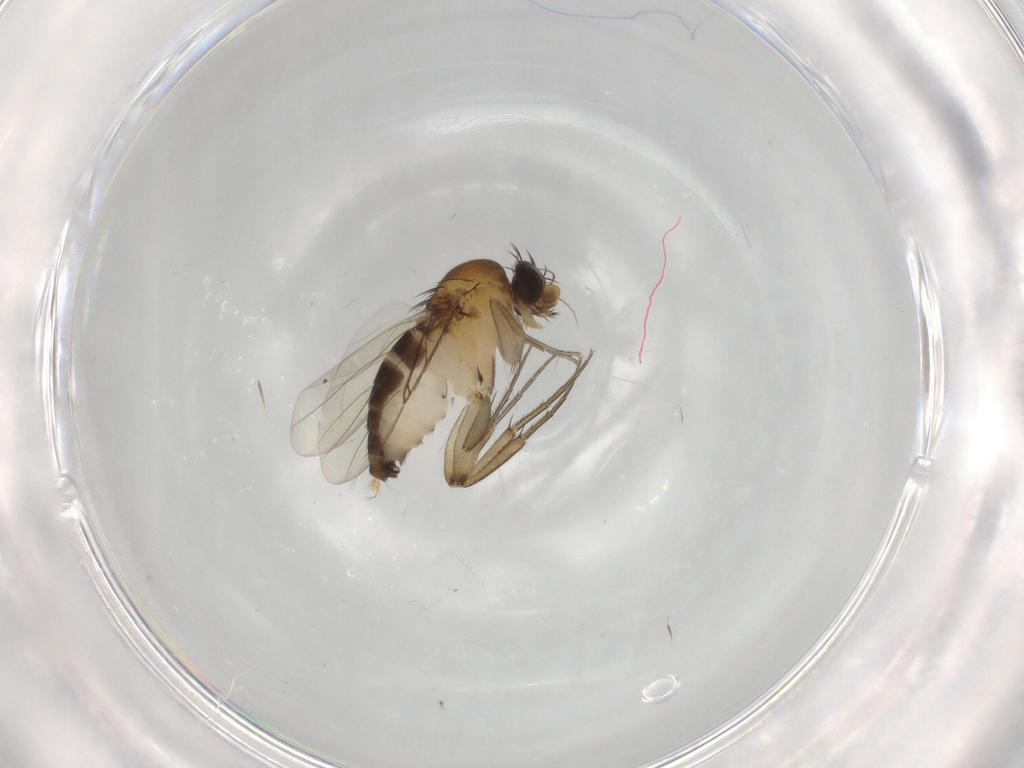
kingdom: Animalia
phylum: Arthropoda
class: Insecta
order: Diptera
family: Phoridae
